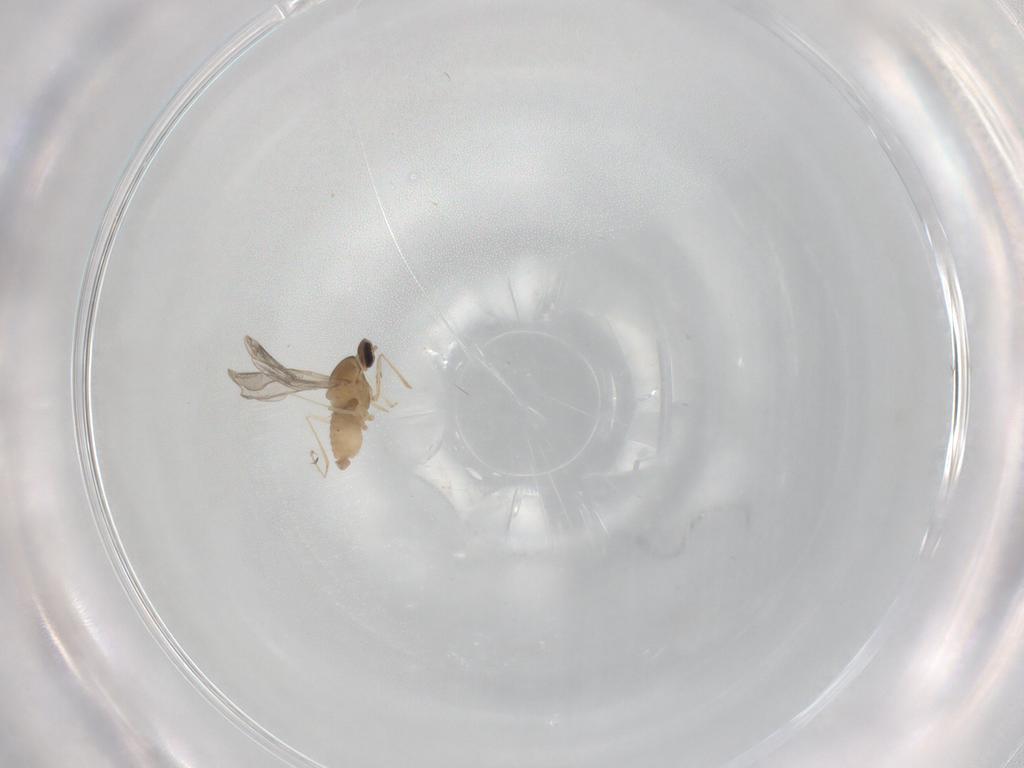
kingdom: Animalia
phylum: Arthropoda
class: Insecta
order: Diptera
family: Cecidomyiidae
